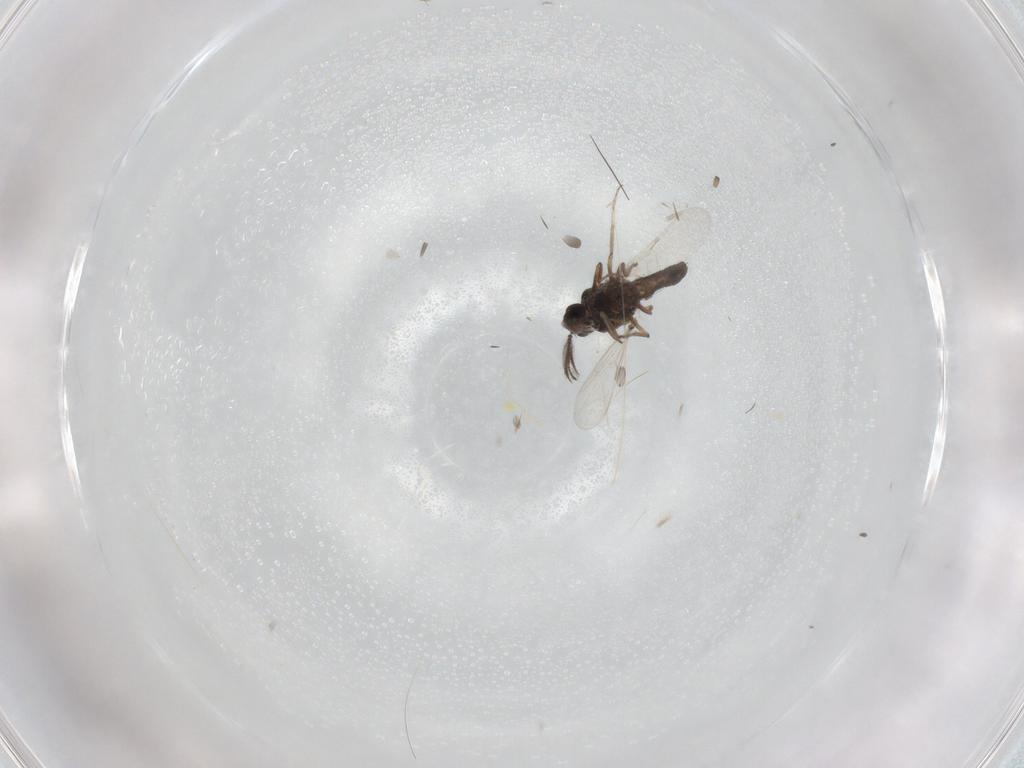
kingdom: Animalia
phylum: Arthropoda
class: Insecta
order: Diptera
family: Ceratopogonidae
